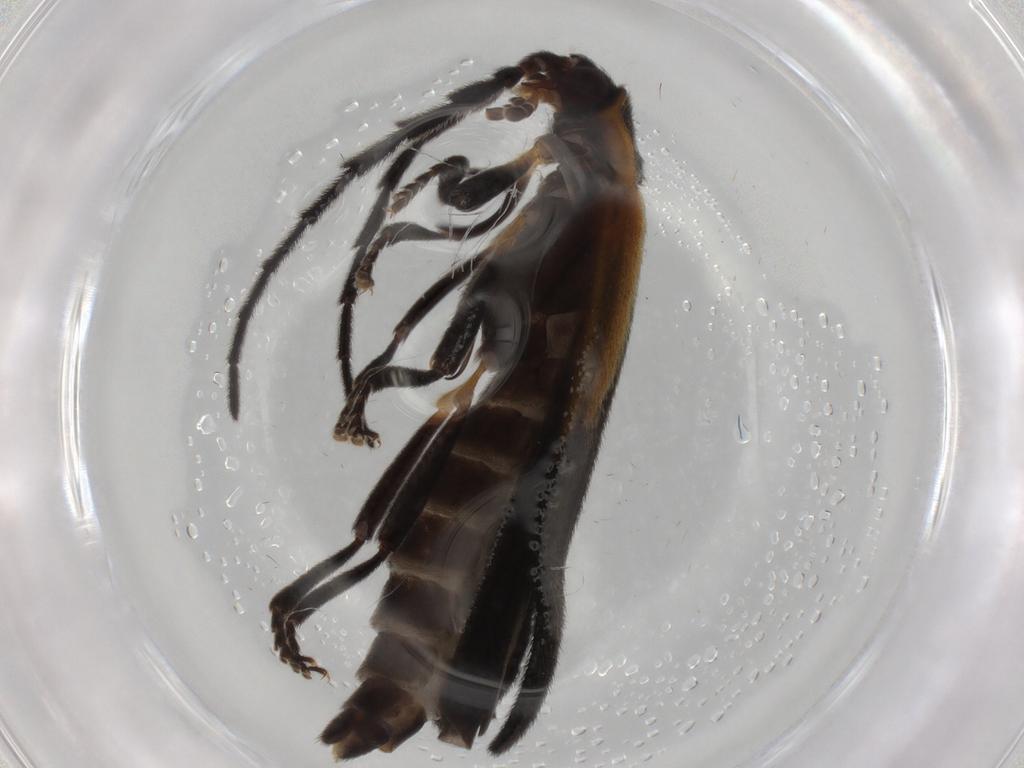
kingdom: Animalia
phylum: Arthropoda
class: Insecta
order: Coleoptera
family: Lycidae
